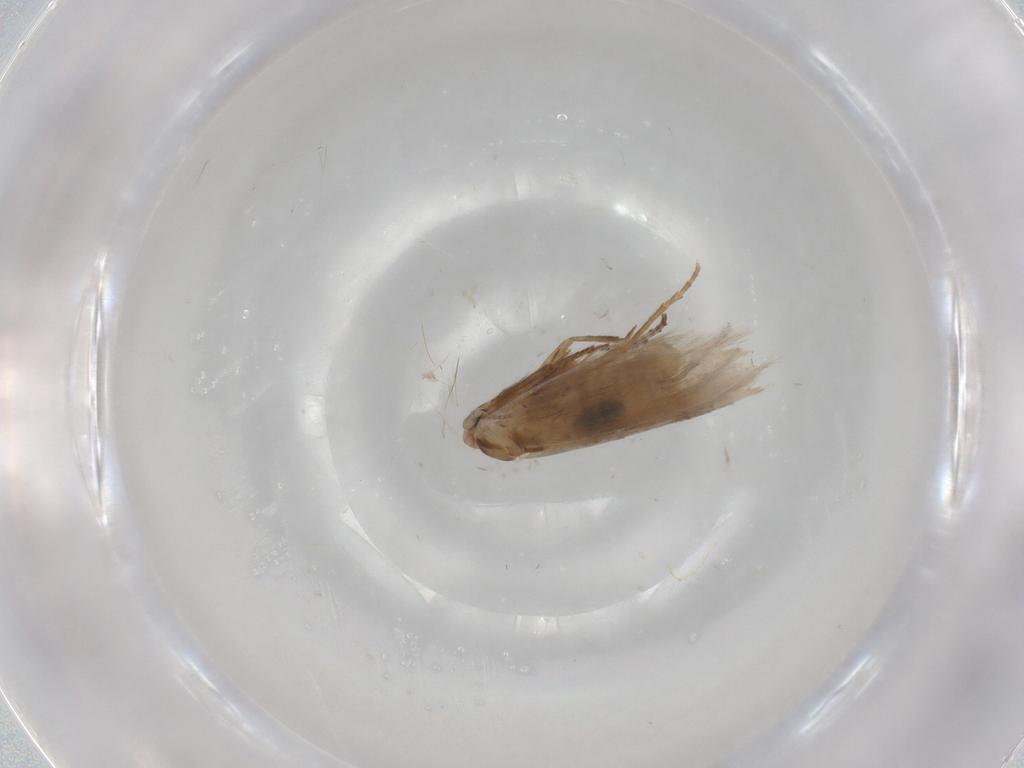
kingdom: Animalia
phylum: Arthropoda
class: Insecta
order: Lepidoptera
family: Bucculatricidae
